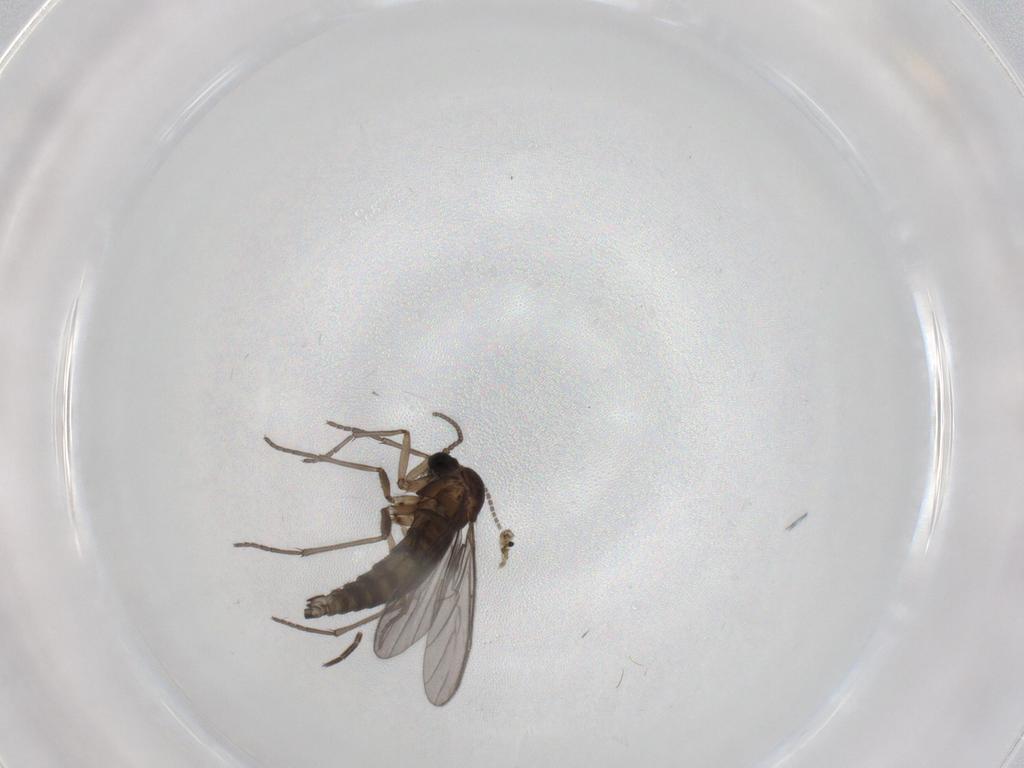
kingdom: Animalia
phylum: Arthropoda
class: Insecta
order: Diptera
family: Sciaridae
